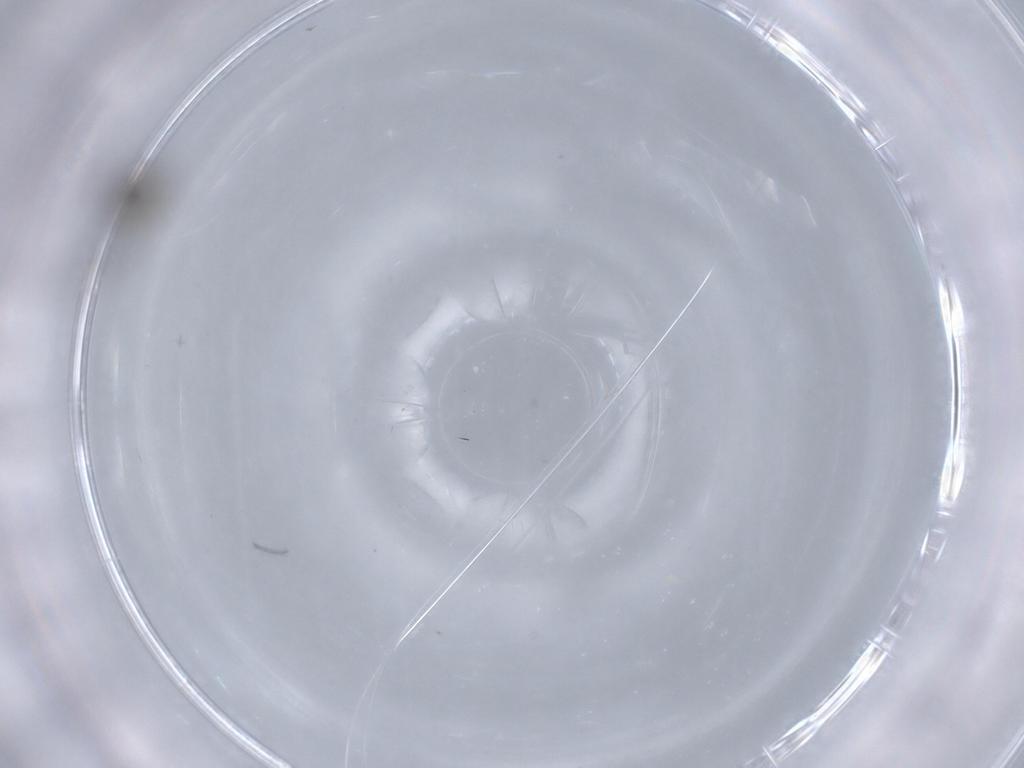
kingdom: Animalia
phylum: Arthropoda
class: Insecta
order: Diptera
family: Sciaridae
